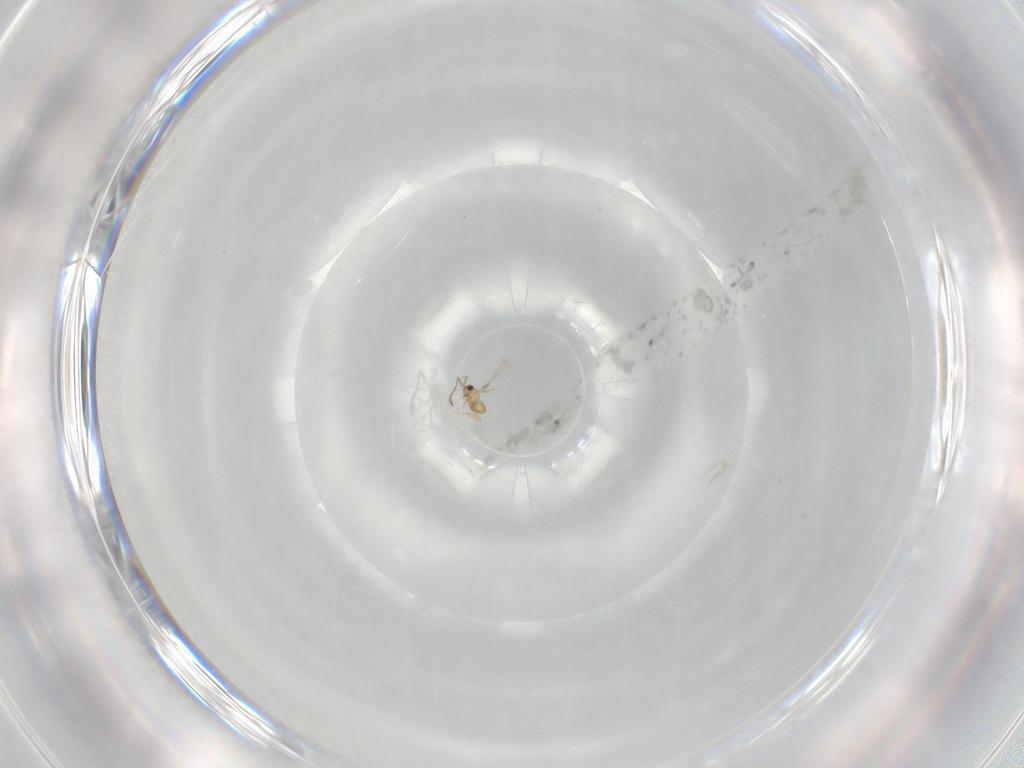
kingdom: Animalia
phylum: Arthropoda
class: Insecta
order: Hymenoptera
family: Mymaridae
